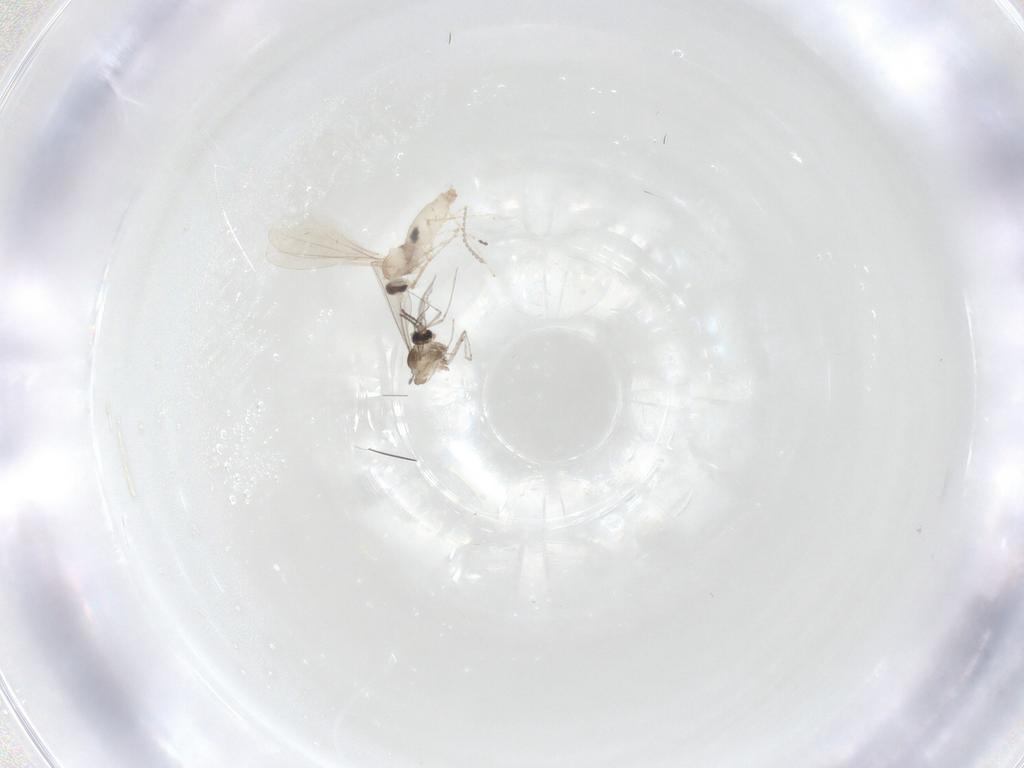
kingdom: Animalia
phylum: Arthropoda
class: Insecta
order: Diptera
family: Cecidomyiidae
